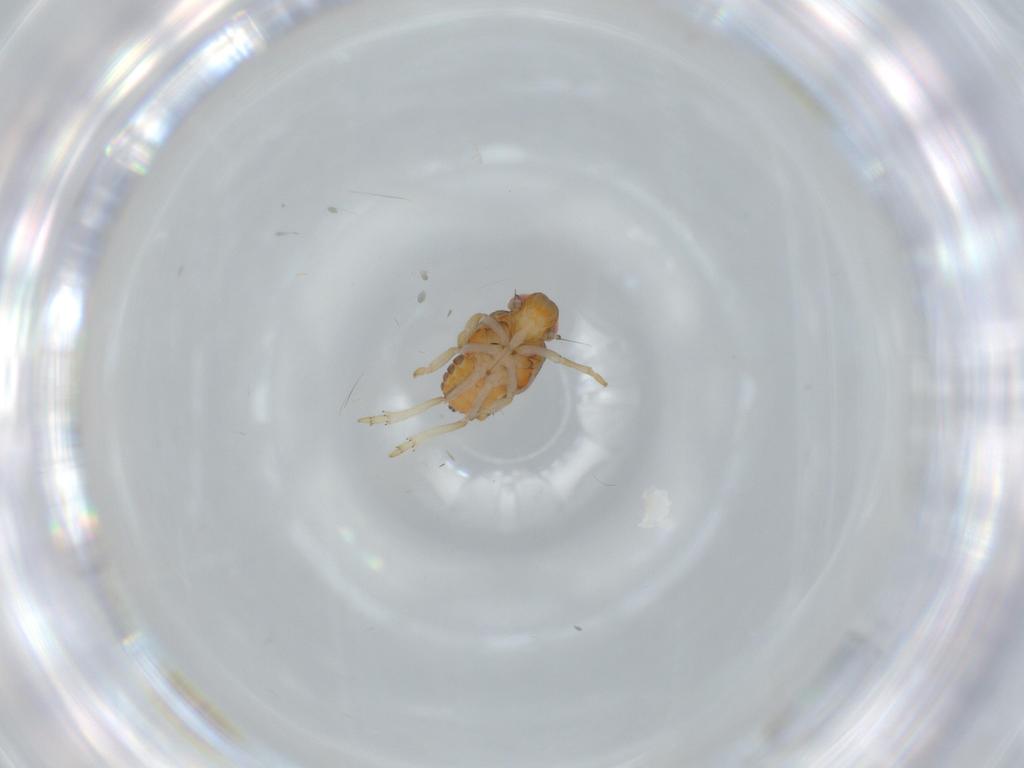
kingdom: Animalia
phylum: Arthropoda
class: Insecta
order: Hemiptera
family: Issidae
